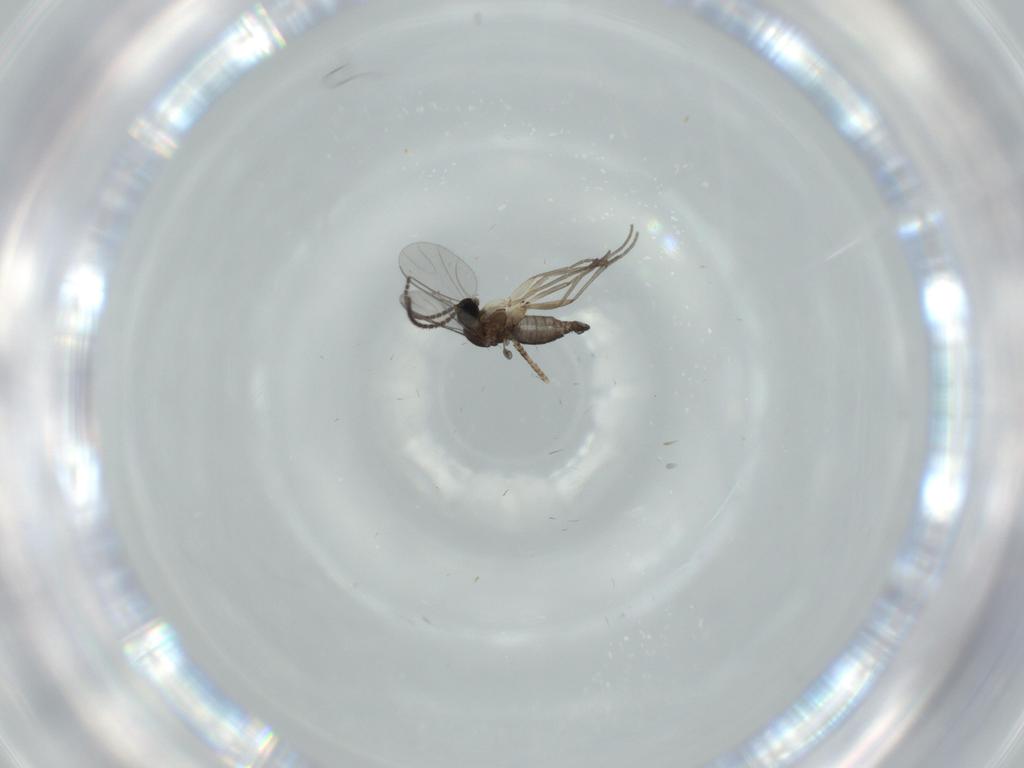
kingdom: Animalia
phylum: Arthropoda
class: Insecta
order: Diptera
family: Sciaridae
